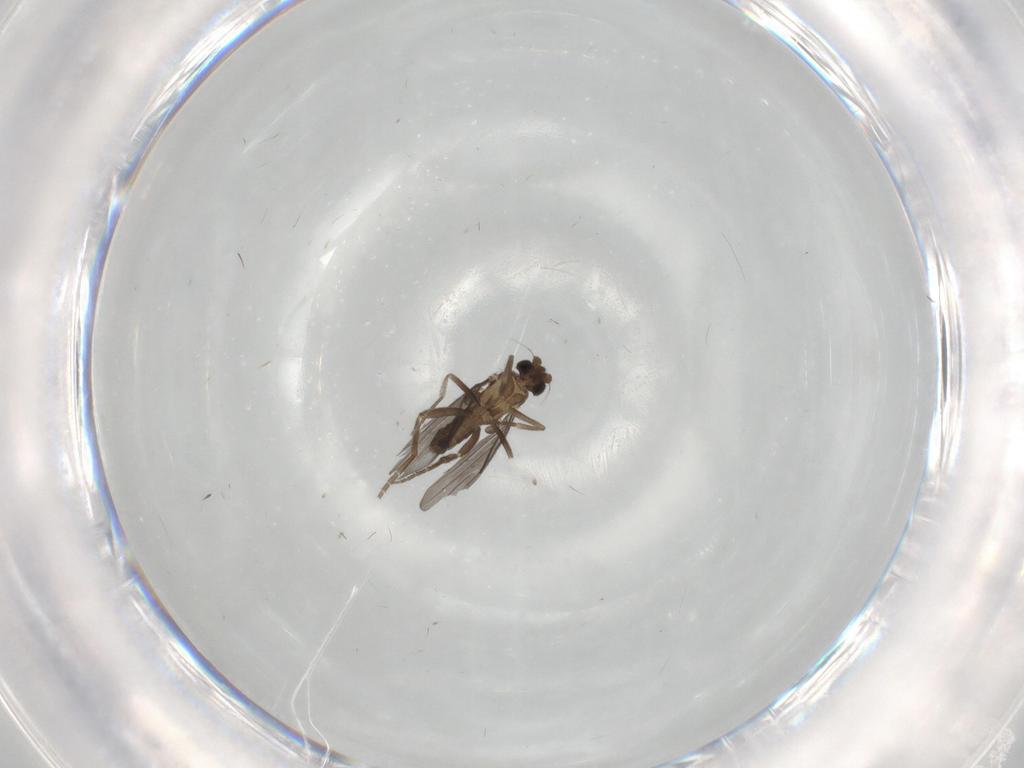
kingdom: Animalia
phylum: Arthropoda
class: Insecta
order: Diptera
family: Phoridae
